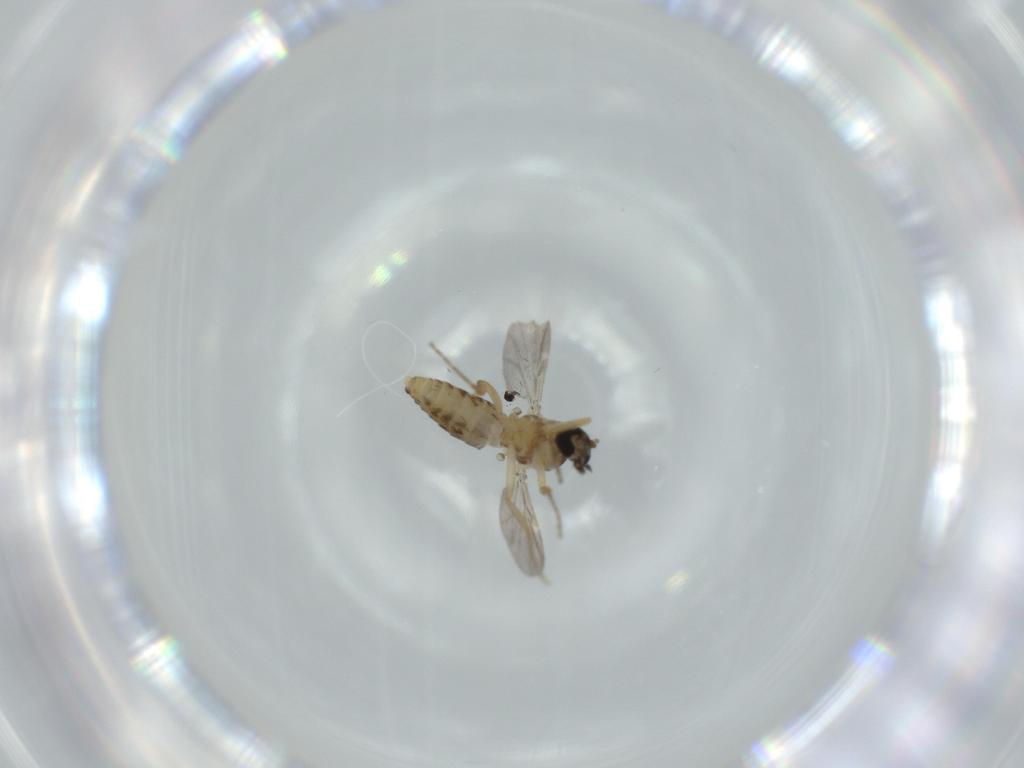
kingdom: Animalia
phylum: Arthropoda
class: Insecta
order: Diptera
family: Ceratopogonidae
